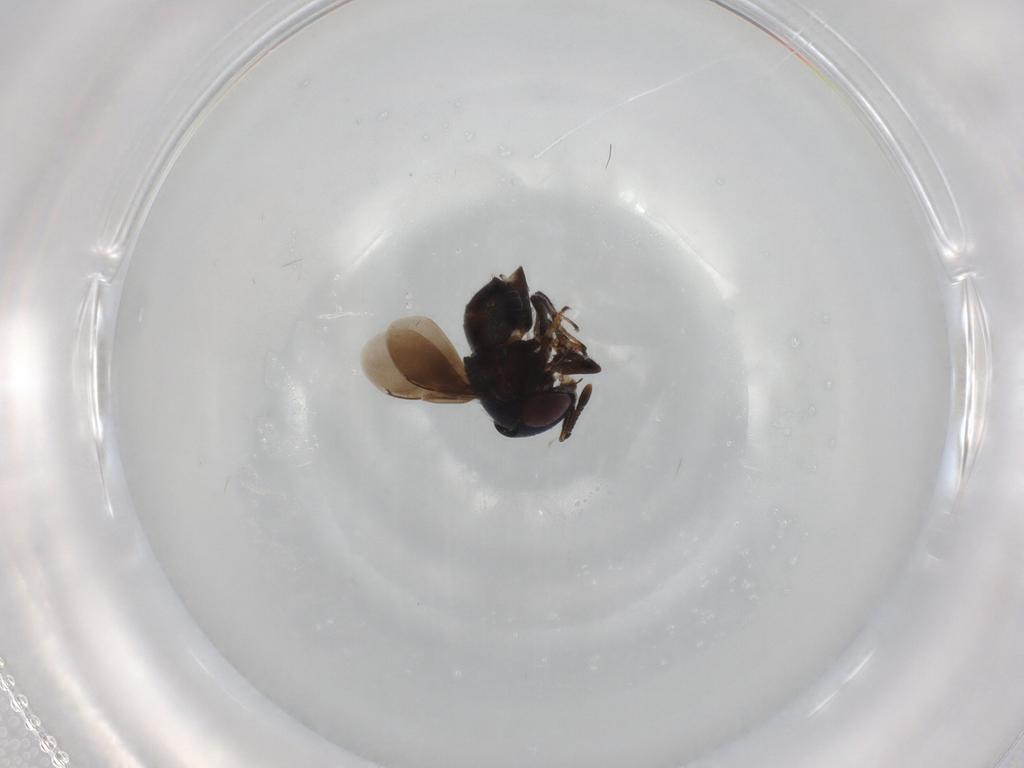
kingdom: Animalia
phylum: Arthropoda
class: Insecta
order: Hymenoptera
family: Encyrtidae
